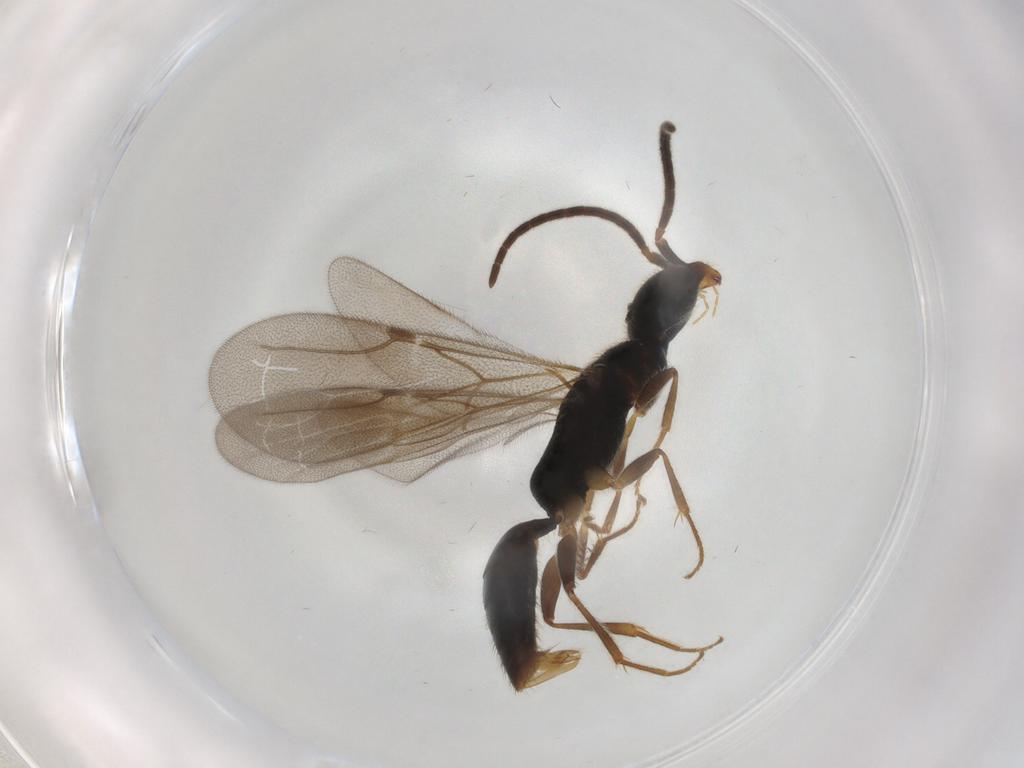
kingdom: Animalia
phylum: Arthropoda
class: Insecta
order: Hymenoptera
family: Bethylidae
